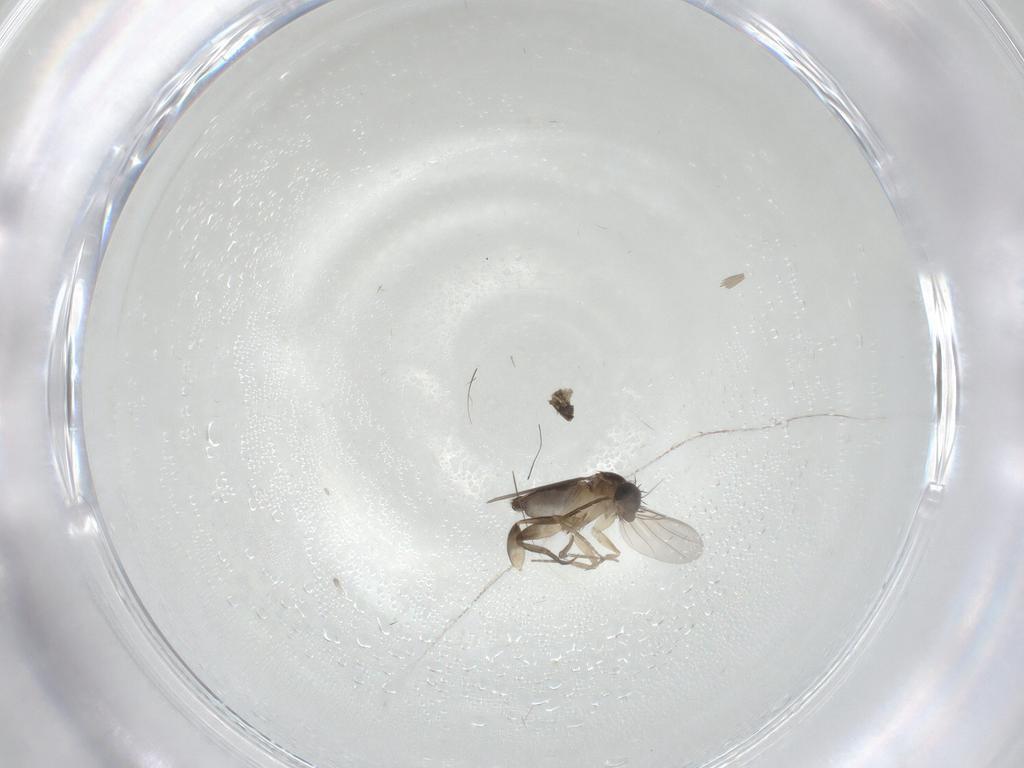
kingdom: Animalia
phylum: Arthropoda
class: Insecta
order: Diptera
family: Phoridae
